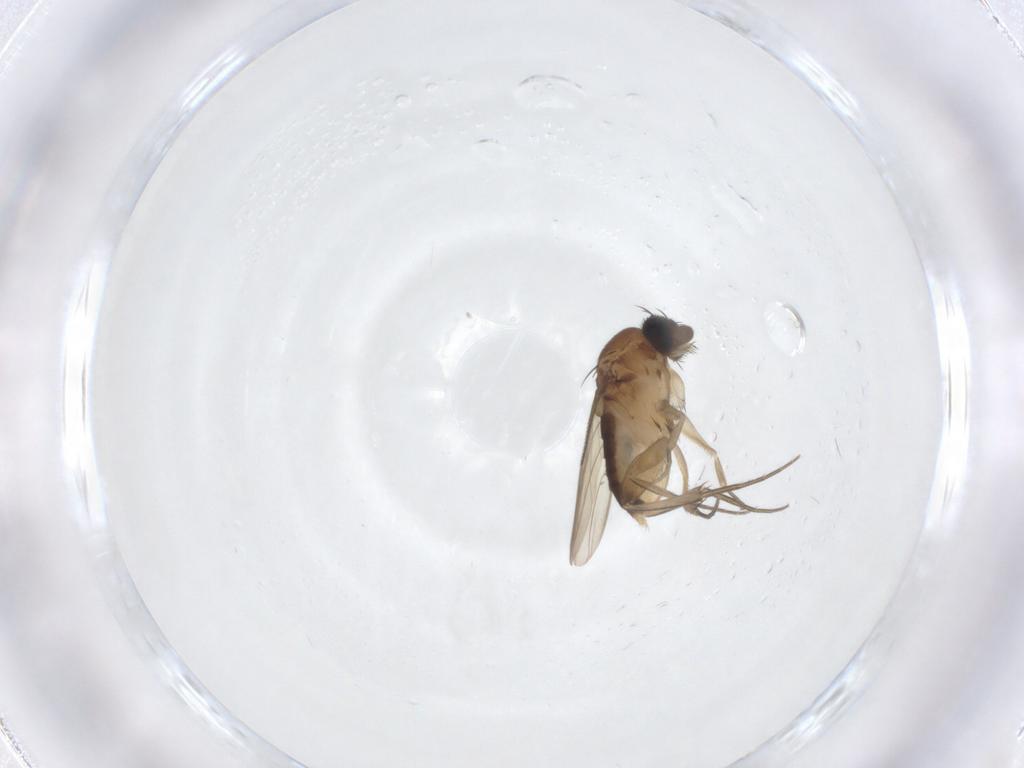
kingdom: Animalia
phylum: Arthropoda
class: Insecta
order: Diptera
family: Phoridae
